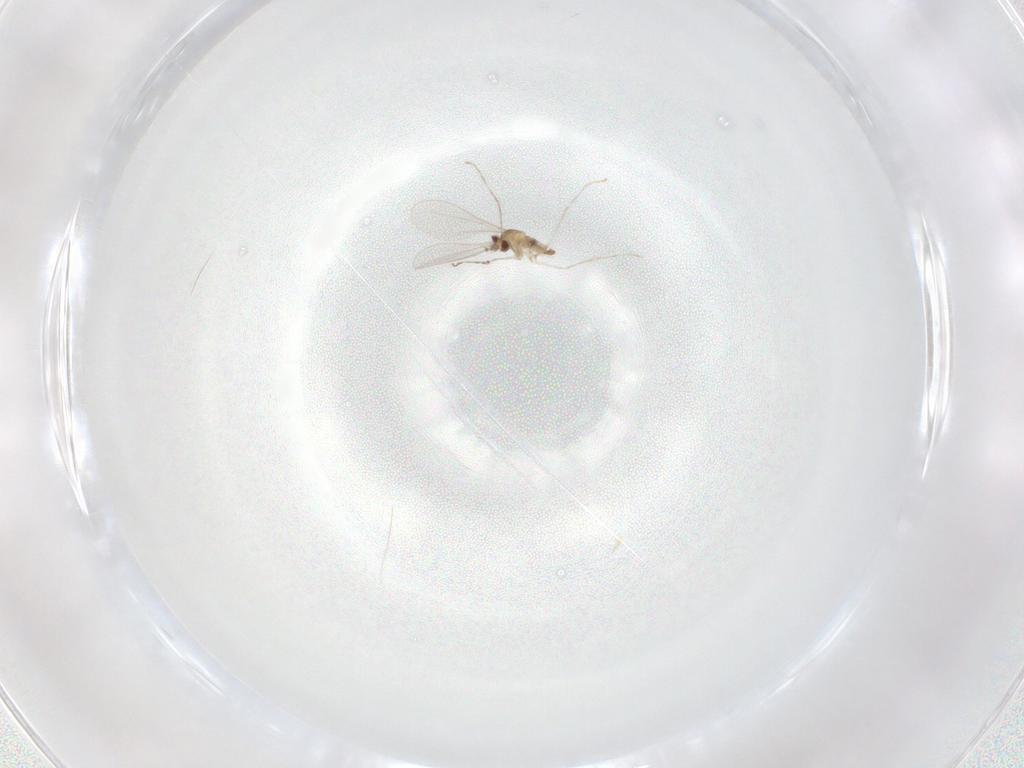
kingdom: Animalia
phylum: Arthropoda
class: Insecta
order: Diptera
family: Cecidomyiidae
